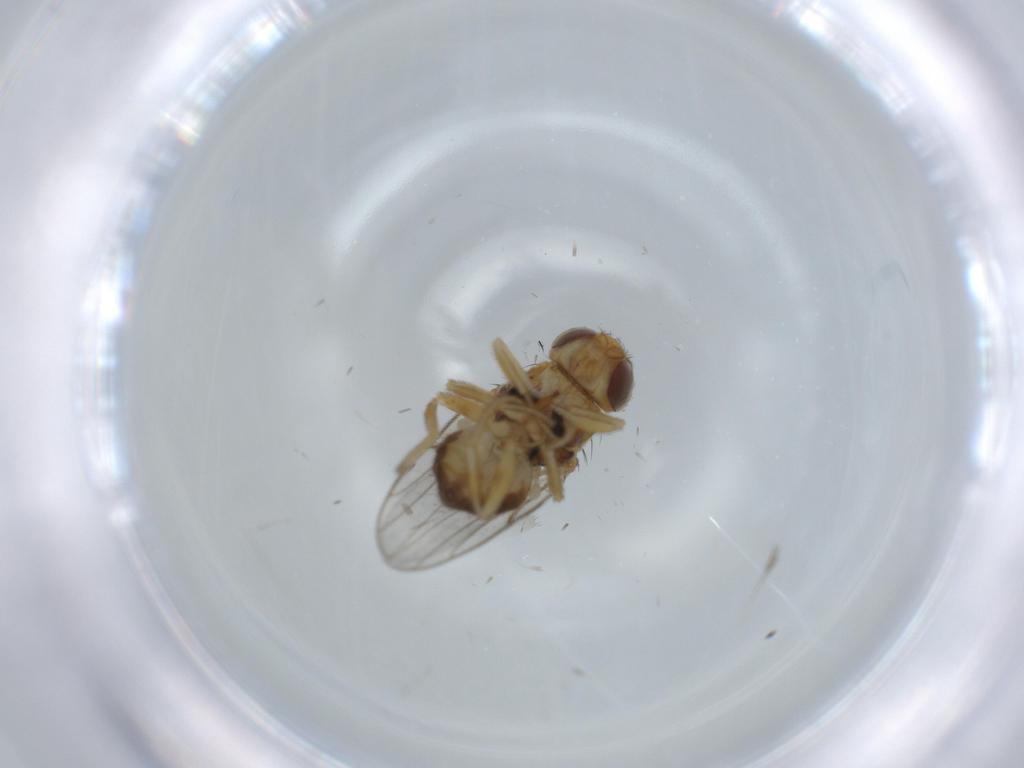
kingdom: Animalia
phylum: Arthropoda
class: Insecta
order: Diptera
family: Chloropidae
